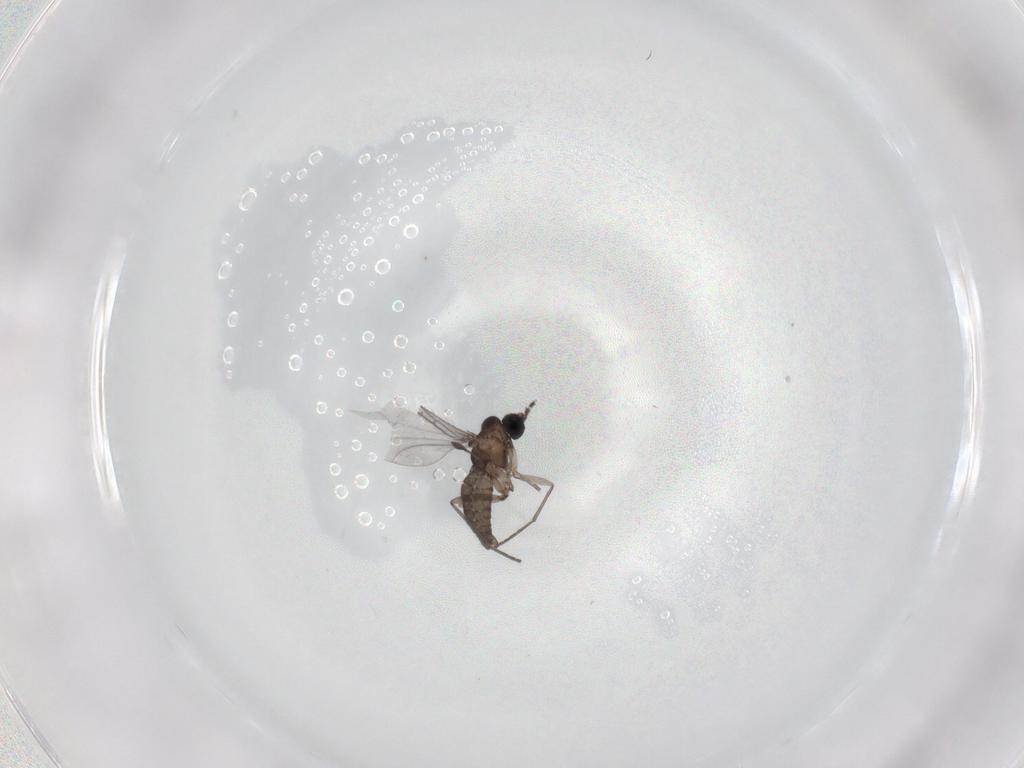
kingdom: Animalia
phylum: Arthropoda
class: Insecta
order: Diptera
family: Sciaridae
